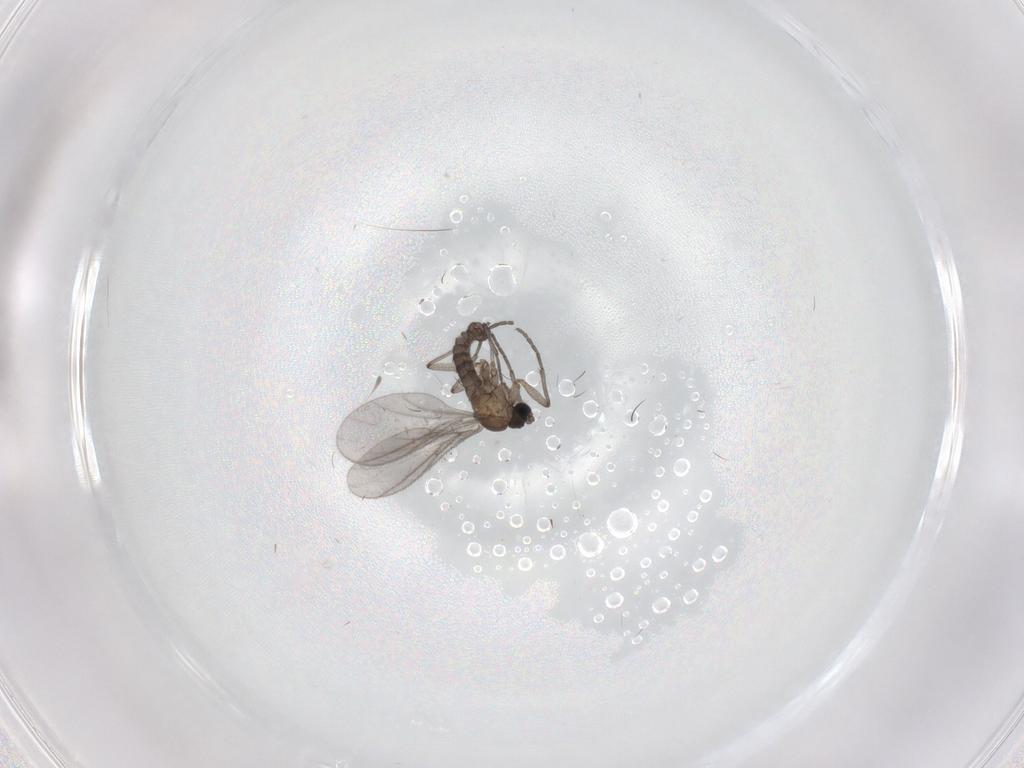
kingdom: Animalia
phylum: Arthropoda
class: Insecta
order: Diptera
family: Sciaridae
